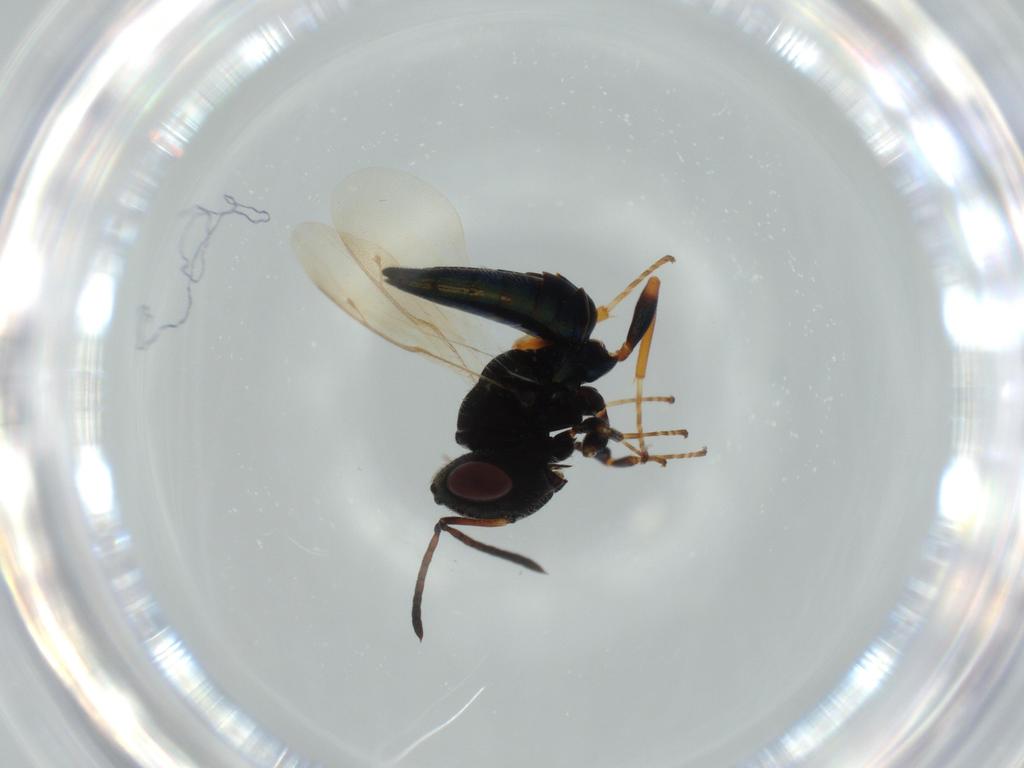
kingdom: Animalia
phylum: Arthropoda
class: Insecta
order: Hymenoptera
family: Pteromalidae
